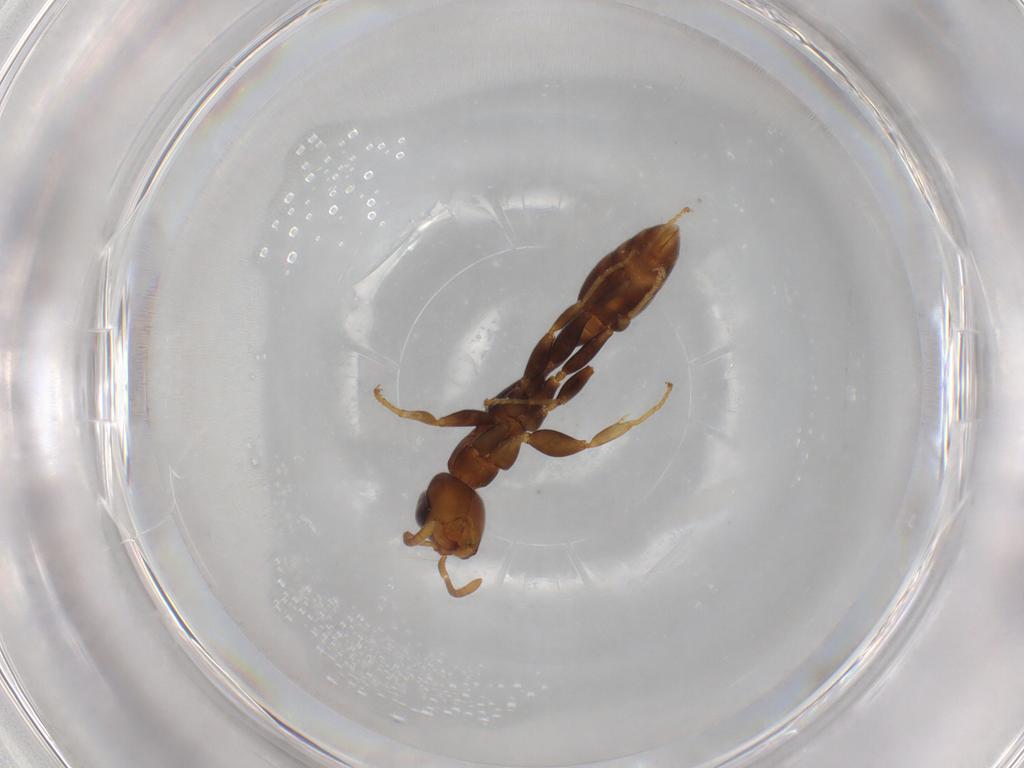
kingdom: Animalia
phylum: Arthropoda
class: Insecta
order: Hymenoptera
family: Formicidae
